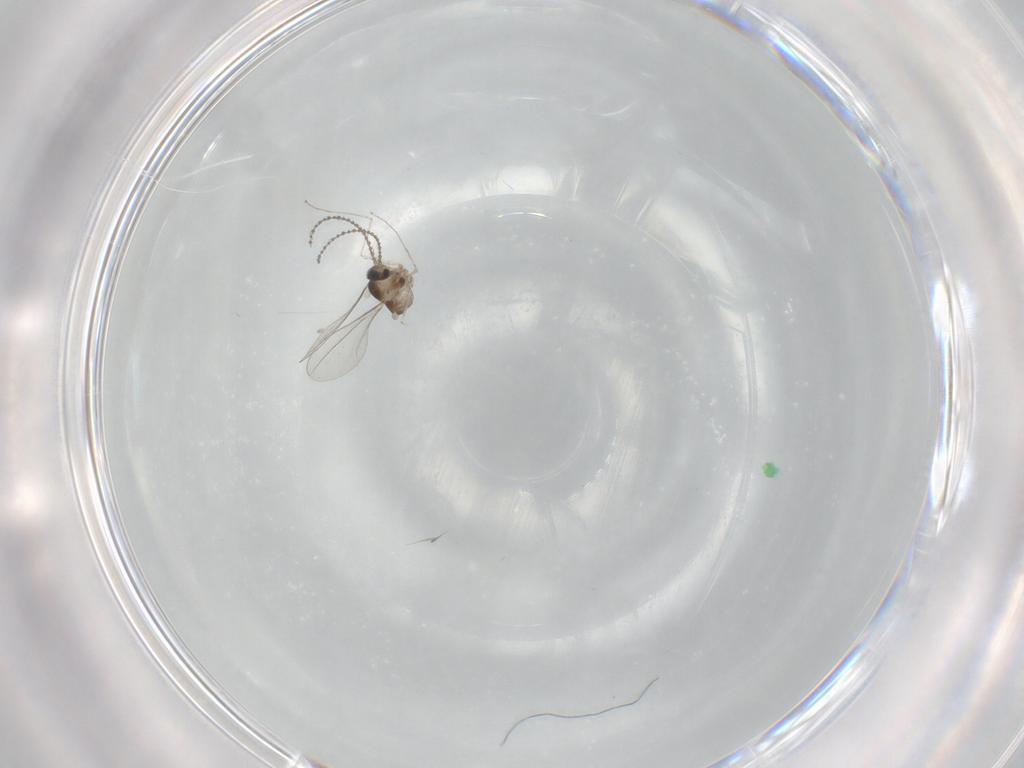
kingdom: Animalia
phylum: Arthropoda
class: Insecta
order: Diptera
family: Cecidomyiidae
